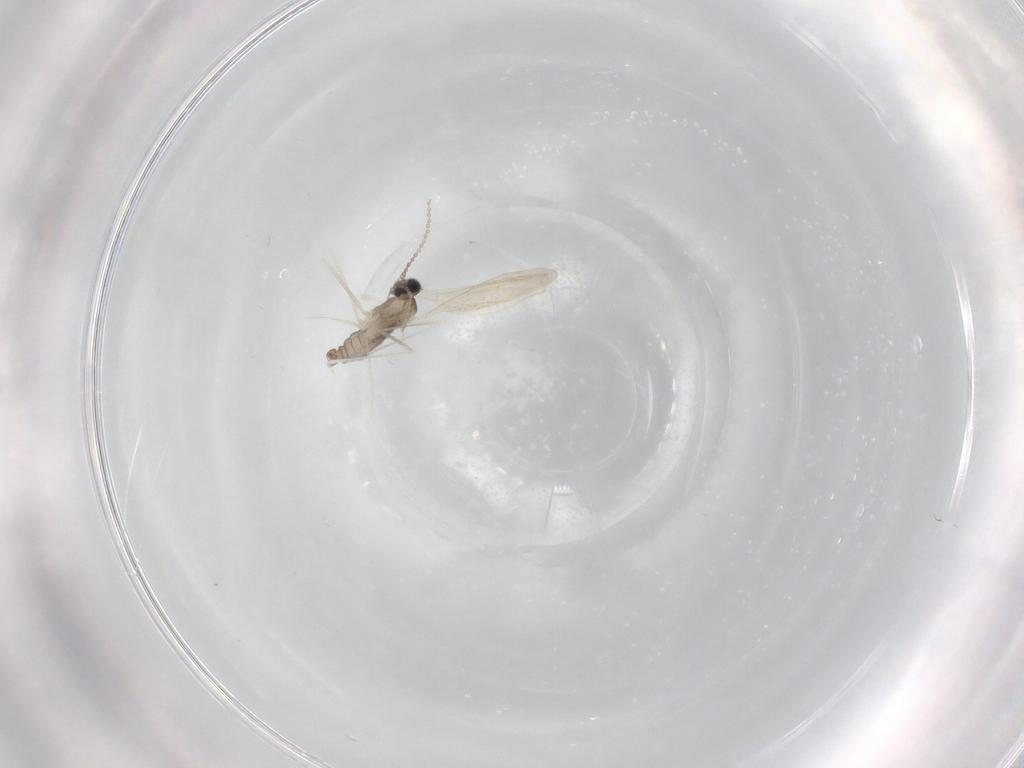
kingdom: Animalia
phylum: Arthropoda
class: Insecta
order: Diptera
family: Cecidomyiidae
